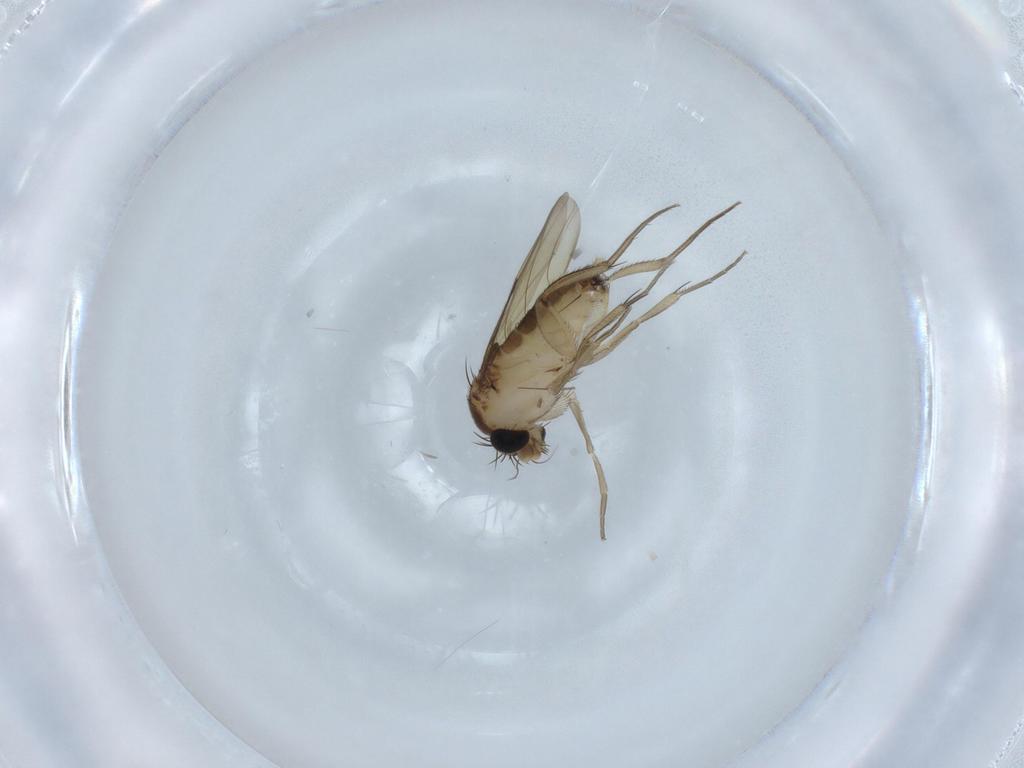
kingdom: Animalia
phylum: Arthropoda
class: Insecta
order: Diptera
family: Phoridae
